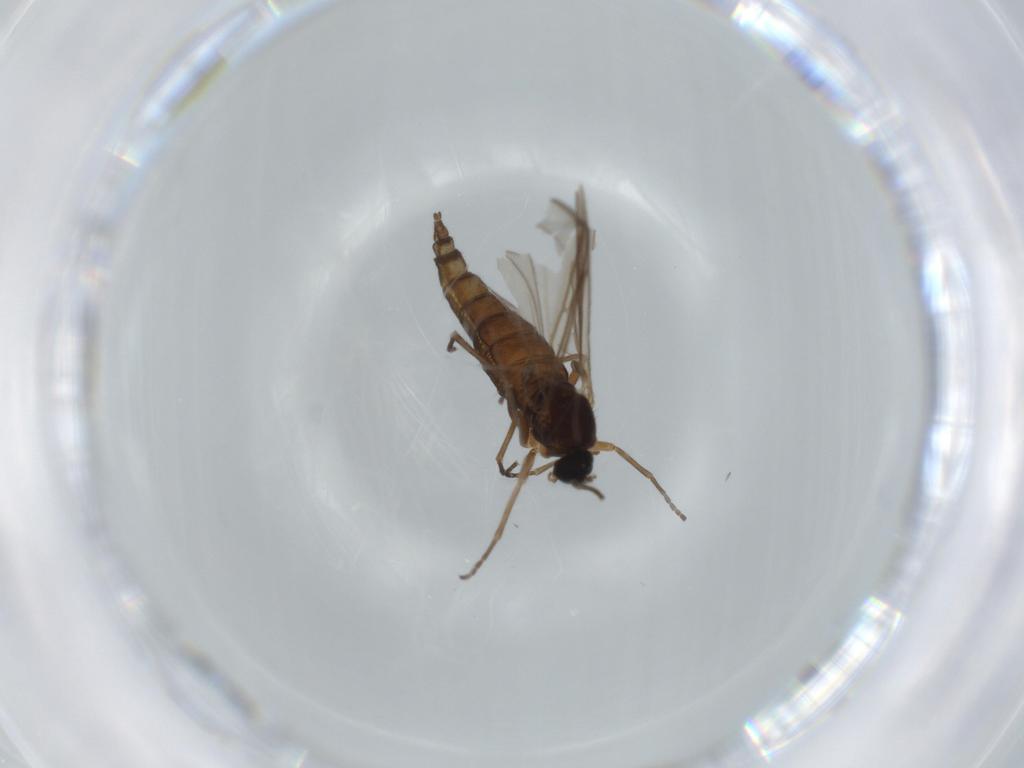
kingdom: Animalia
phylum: Arthropoda
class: Insecta
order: Diptera
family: Sciaridae
